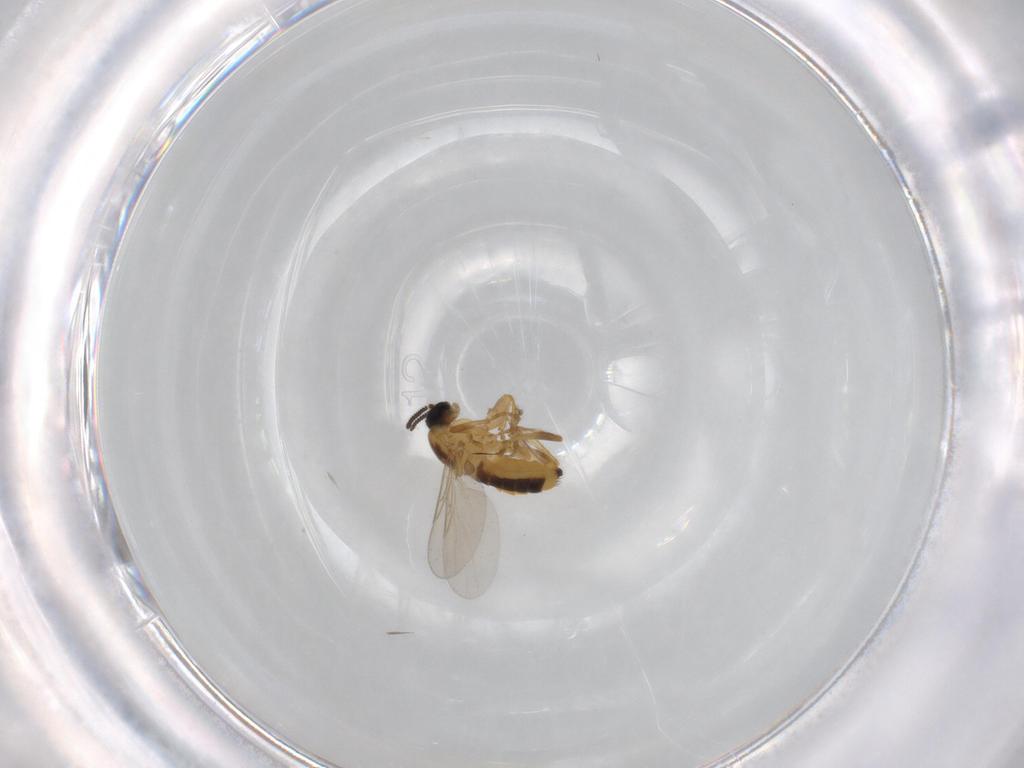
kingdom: Animalia
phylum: Arthropoda
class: Insecta
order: Diptera
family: Scatopsidae
